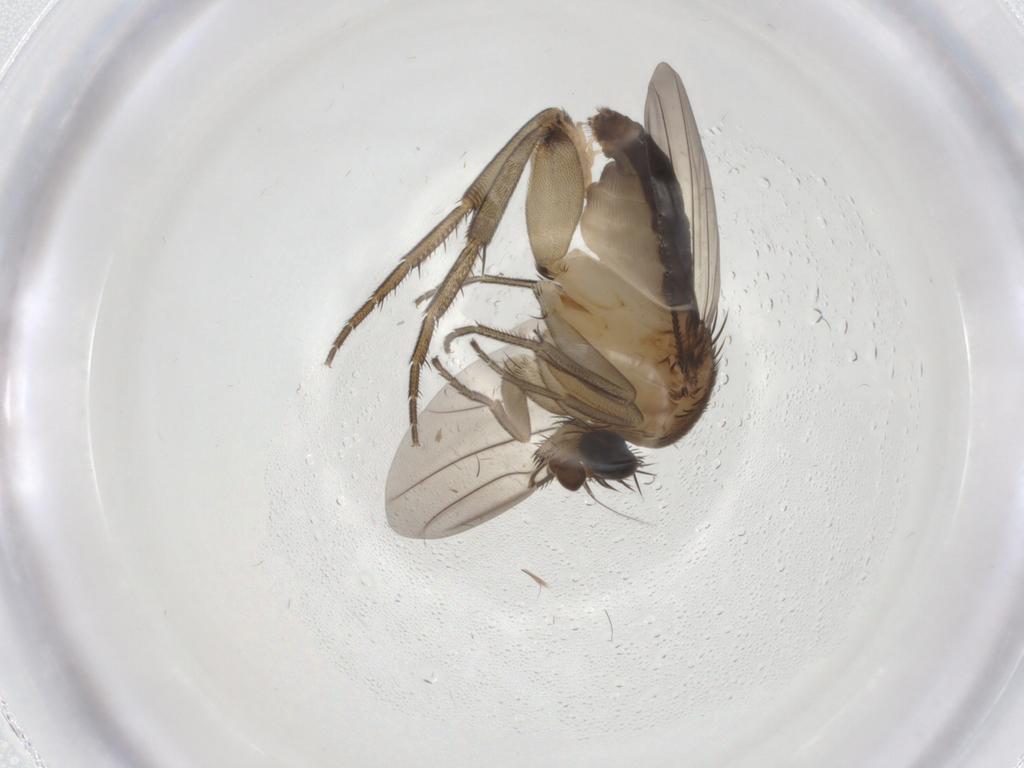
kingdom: Animalia
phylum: Arthropoda
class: Insecta
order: Diptera
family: Phoridae
